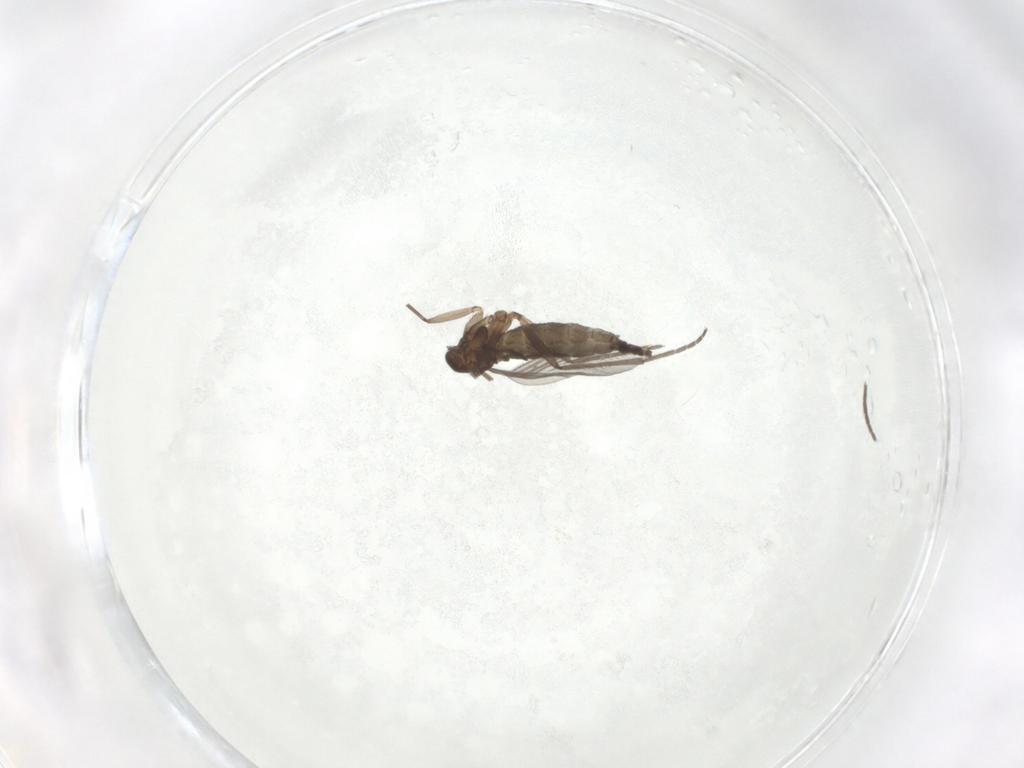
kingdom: Animalia
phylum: Arthropoda
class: Insecta
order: Diptera
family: Sciaridae
